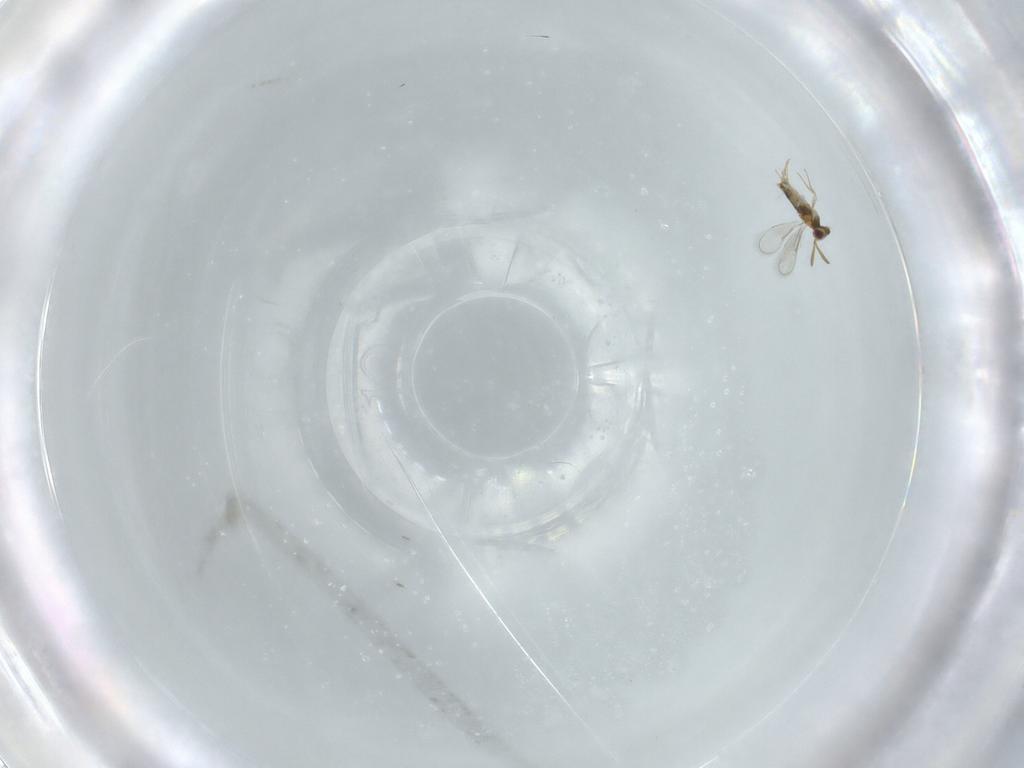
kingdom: Animalia
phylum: Arthropoda
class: Insecta
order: Hymenoptera
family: Aphelinidae
